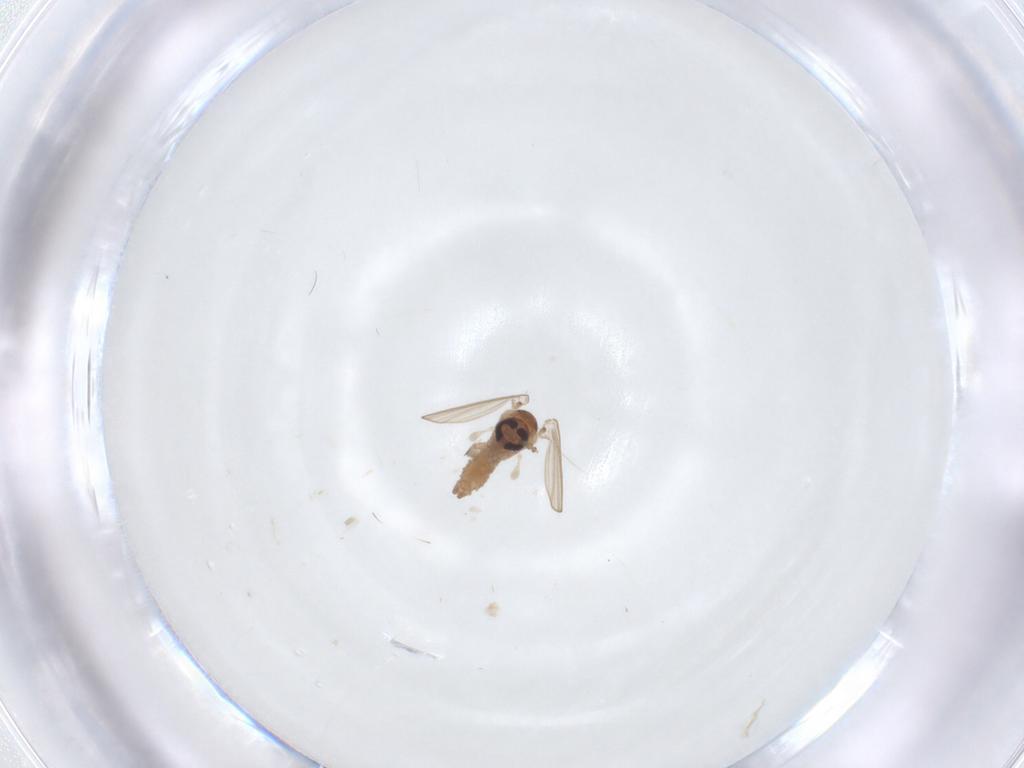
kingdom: Animalia
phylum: Arthropoda
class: Insecta
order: Diptera
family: Psychodidae
